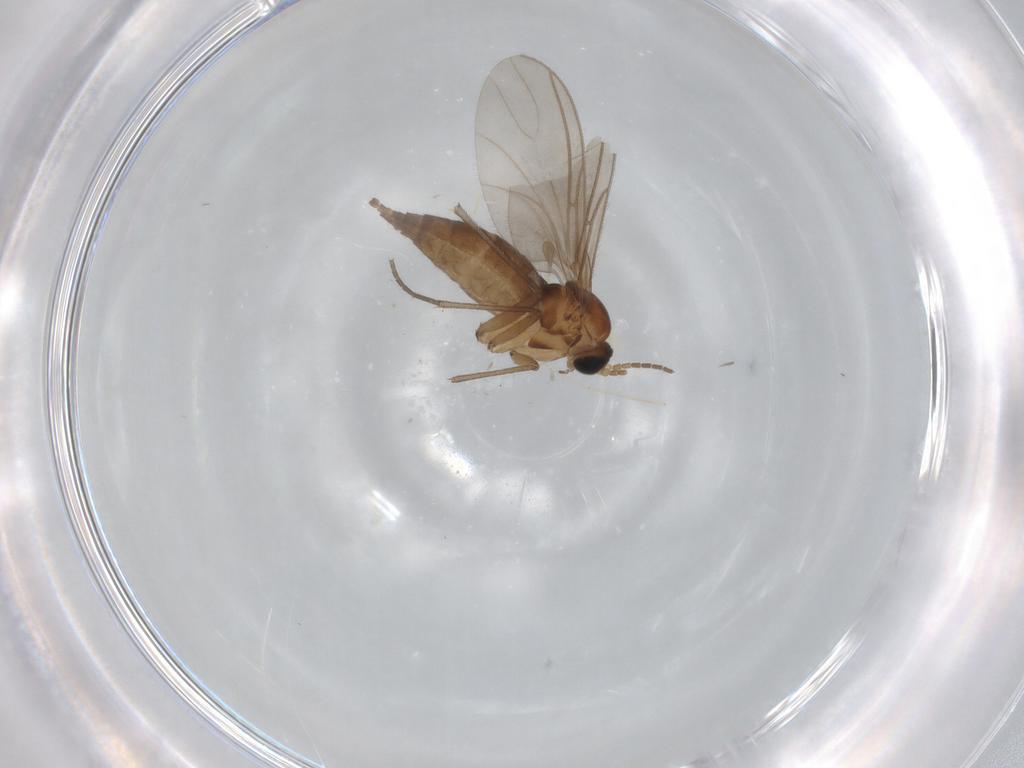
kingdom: Animalia
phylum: Arthropoda
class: Insecta
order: Diptera
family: Sciaridae
